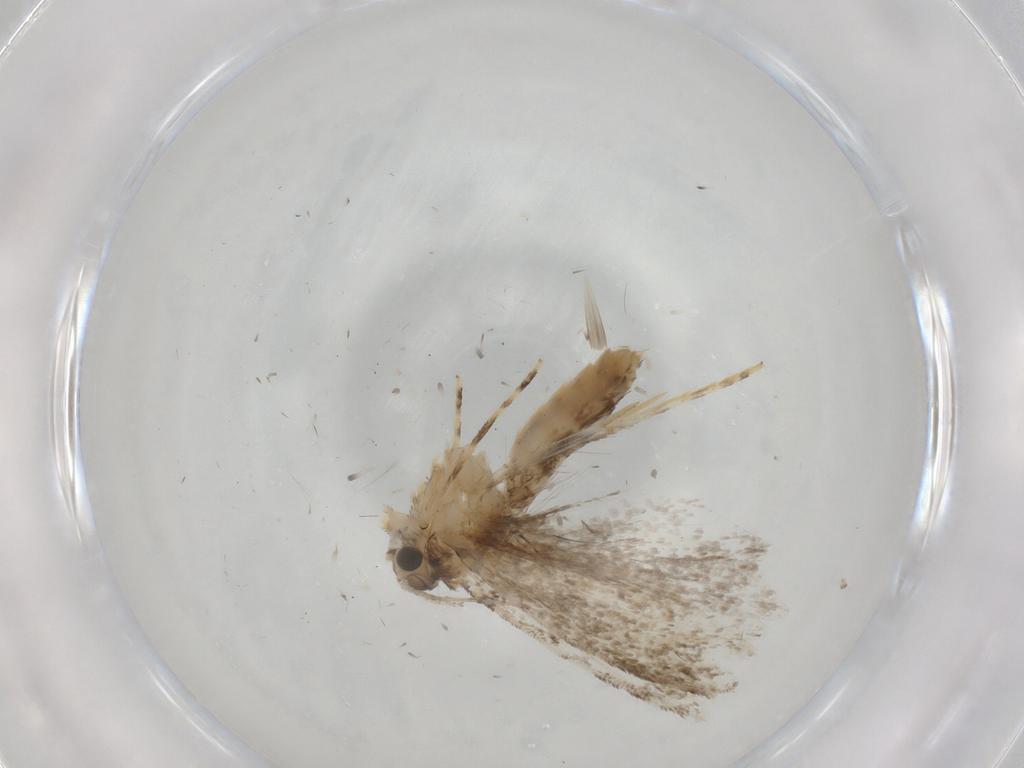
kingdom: Animalia
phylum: Arthropoda
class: Insecta
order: Lepidoptera
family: Tineidae
